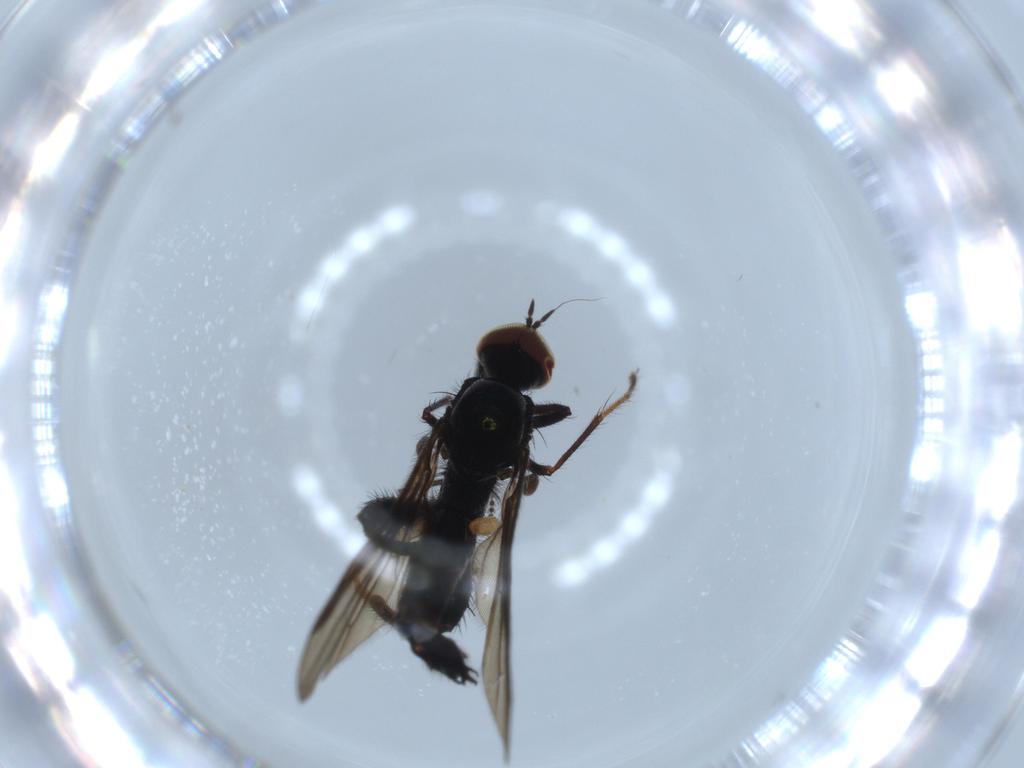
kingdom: Animalia
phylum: Arthropoda
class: Insecta
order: Diptera
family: Hybotidae
